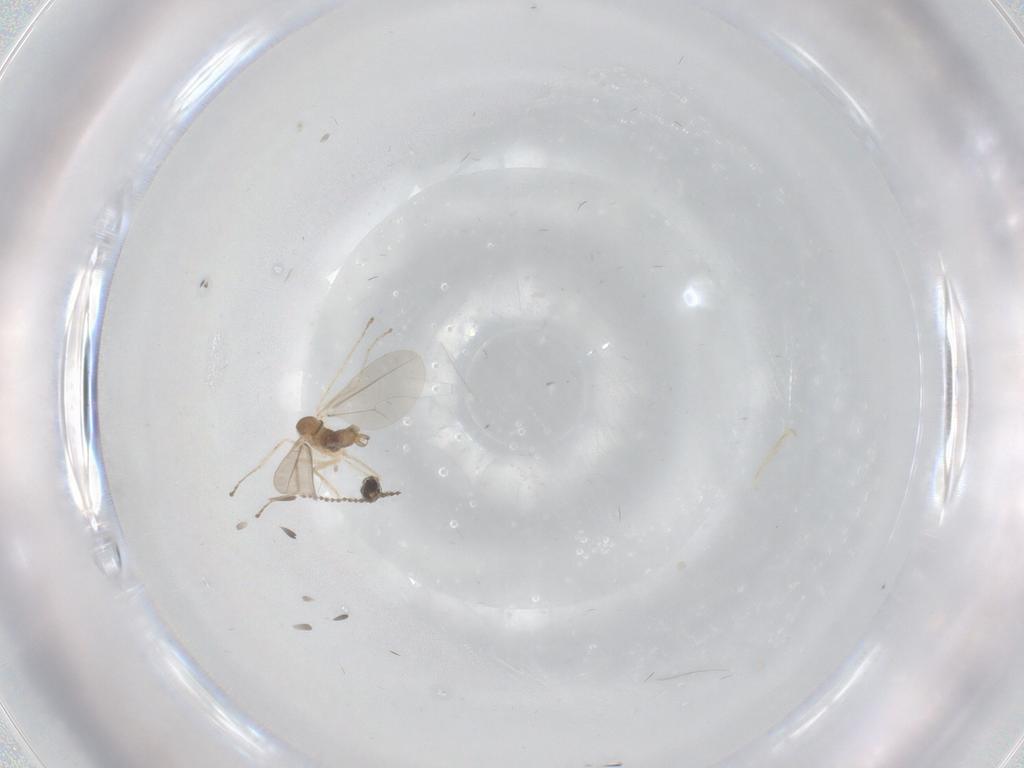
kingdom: Animalia
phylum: Arthropoda
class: Insecta
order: Diptera
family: Cecidomyiidae
